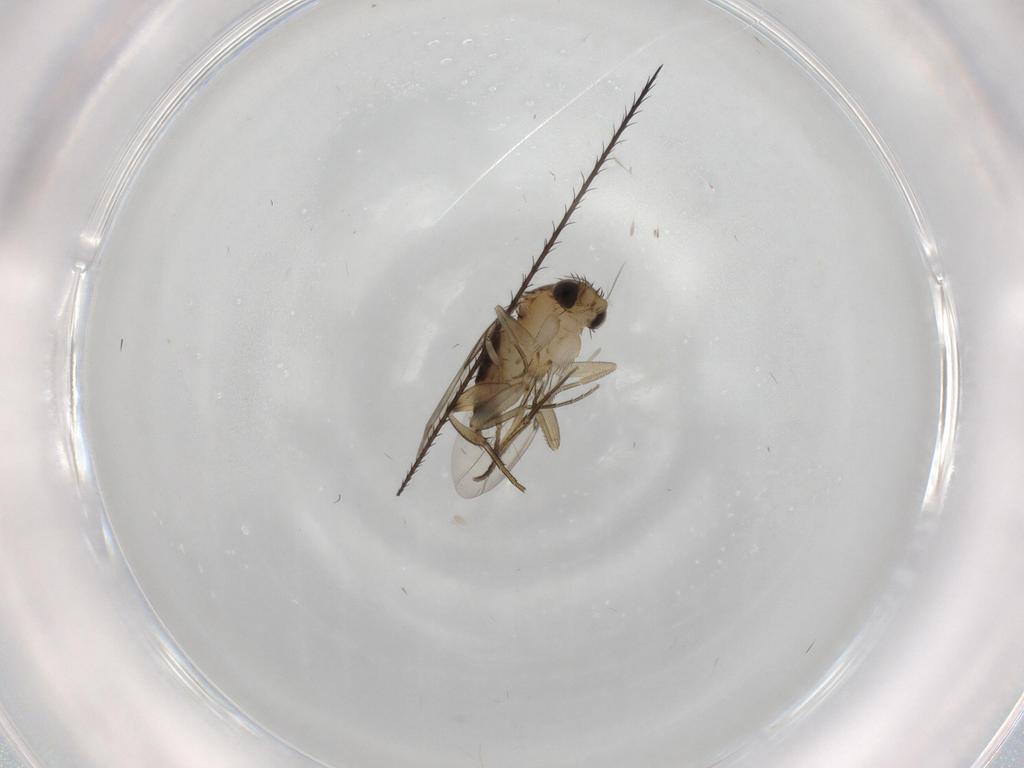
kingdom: Animalia
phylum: Arthropoda
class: Insecta
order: Diptera
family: Phoridae
